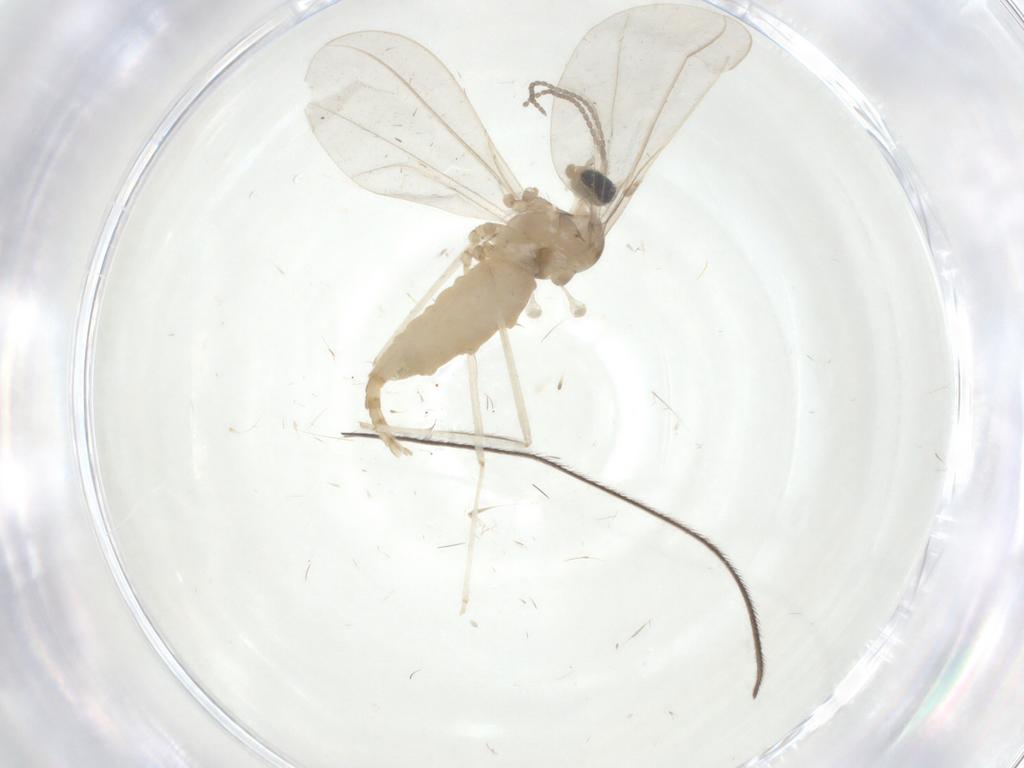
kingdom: Animalia
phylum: Arthropoda
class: Insecta
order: Diptera
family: Cecidomyiidae
